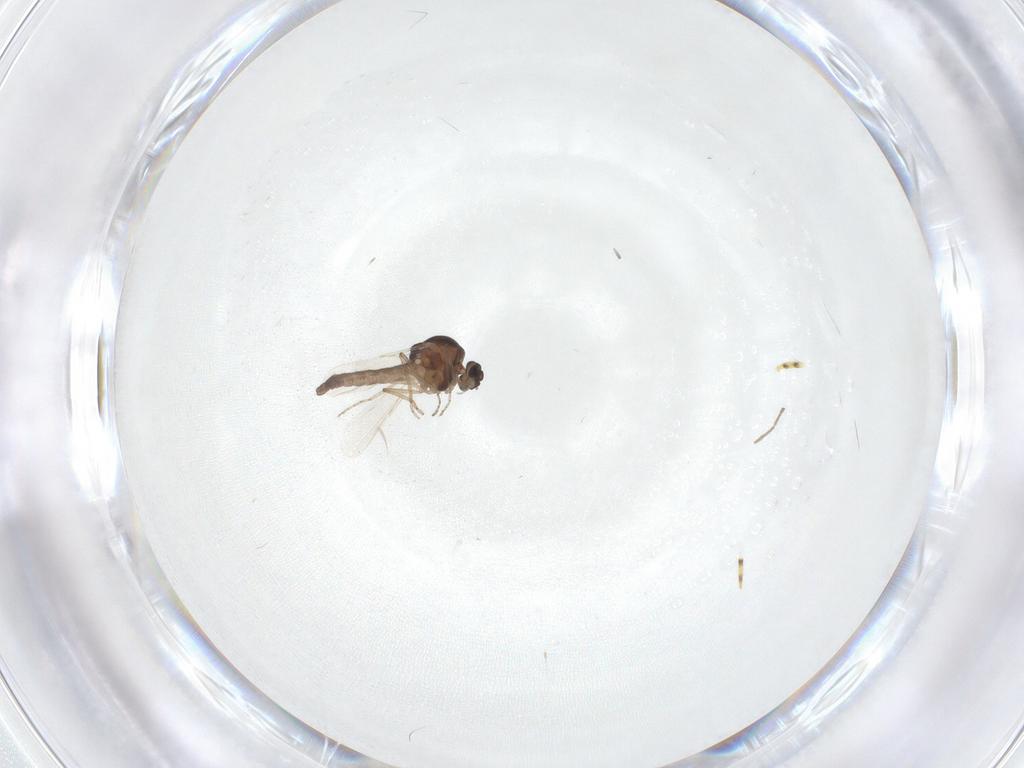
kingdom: Animalia
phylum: Arthropoda
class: Insecta
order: Diptera
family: Ceratopogonidae
